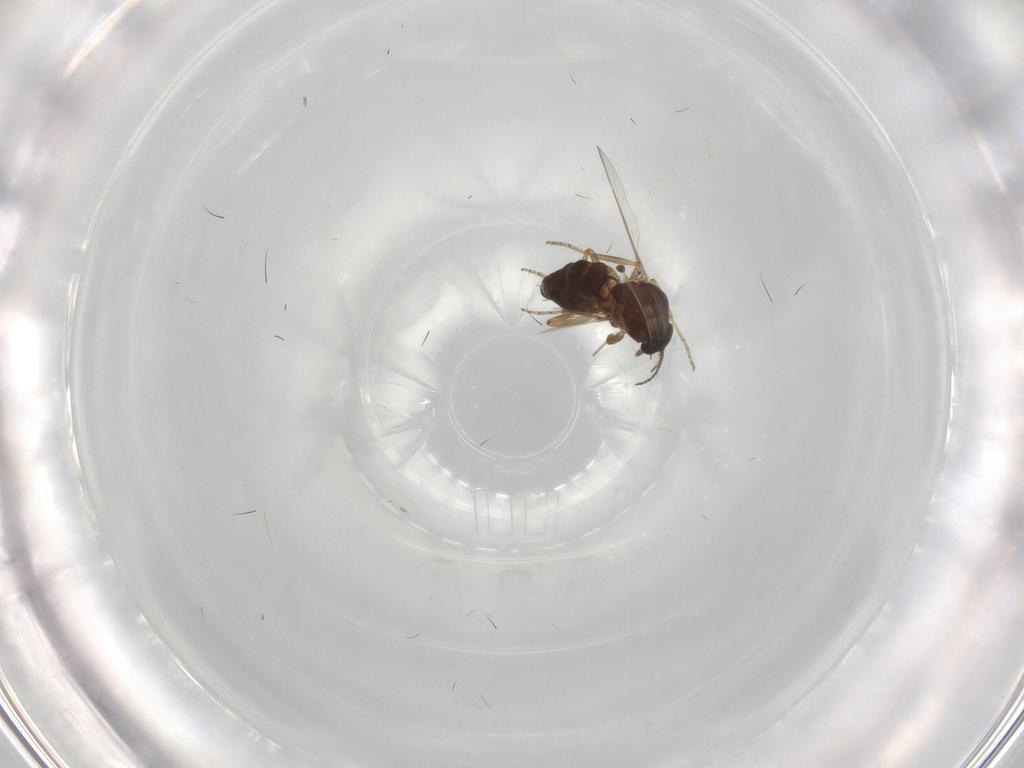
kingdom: Animalia
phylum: Arthropoda
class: Insecta
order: Diptera
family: Ceratopogonidae
